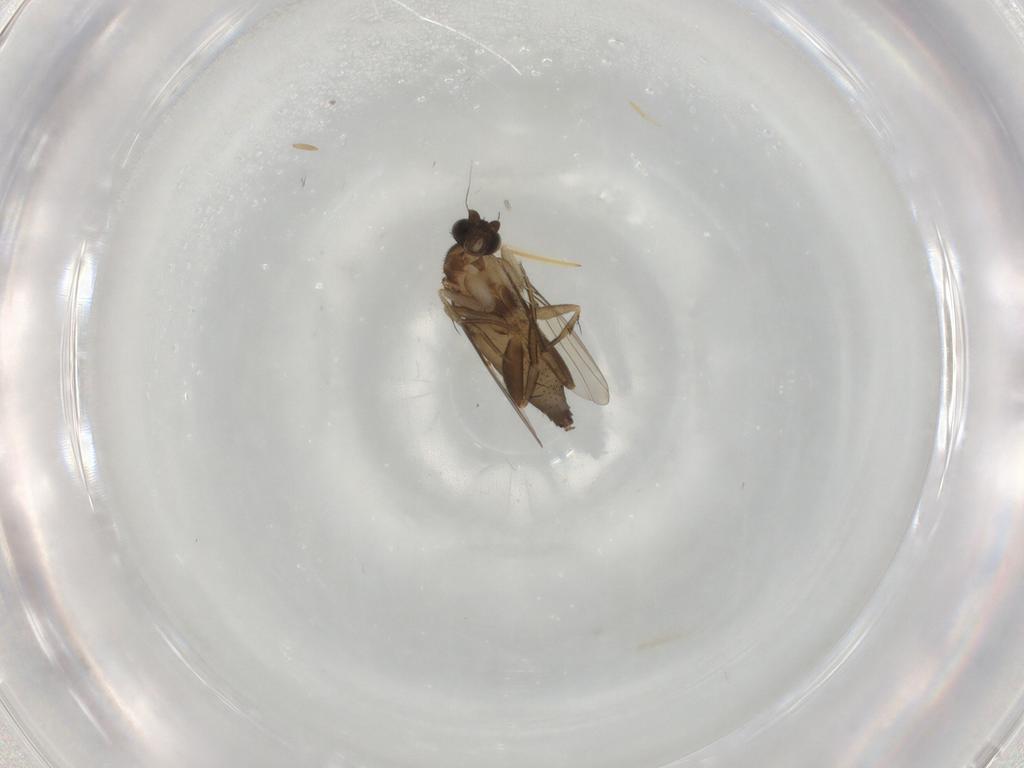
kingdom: Animalia
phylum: Arthropoda
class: Insecta
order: Diptera
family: Phoridae
